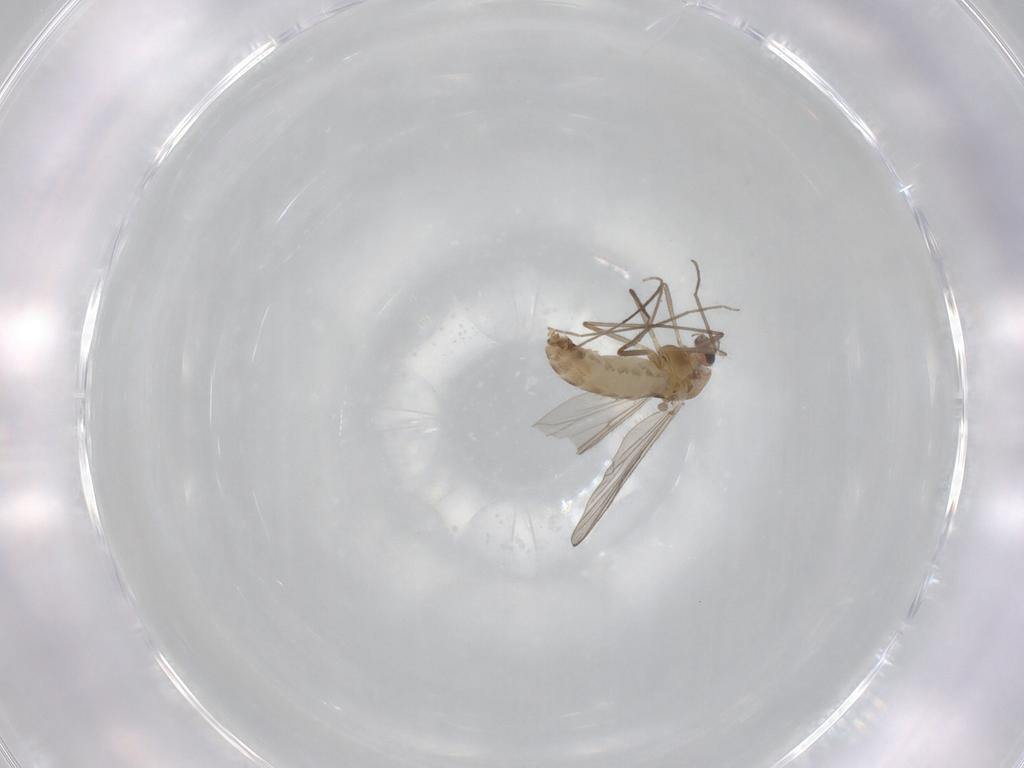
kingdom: Animalia
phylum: Arthropoda
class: Insecta
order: Diptera
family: Chironomidae
